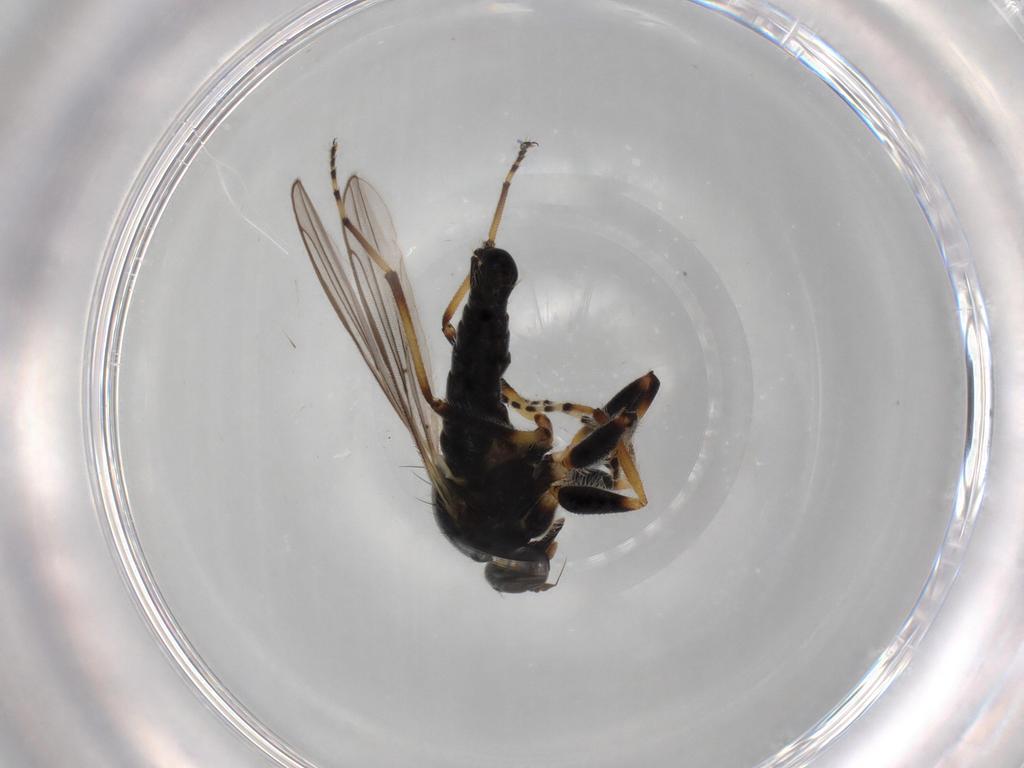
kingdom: Animalia
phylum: Arthropoda
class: Insecta
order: Diptera
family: Hybotidae
